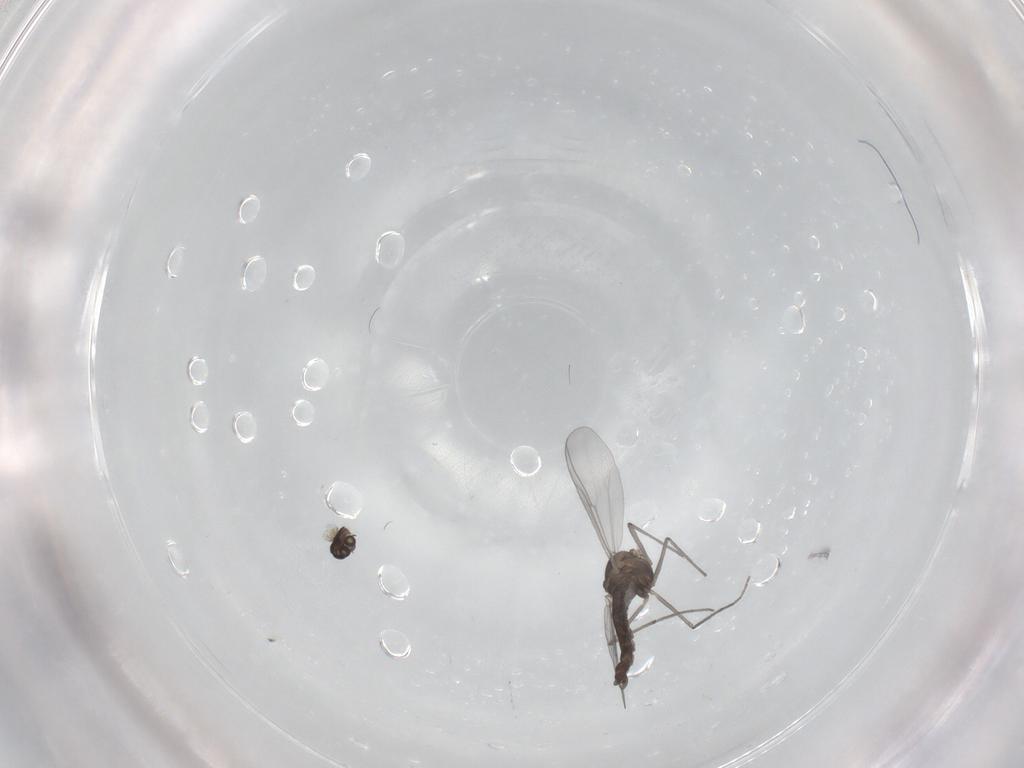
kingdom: Animalia
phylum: Arthropoda
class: Insecta
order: Diptera
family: Chironomidae
